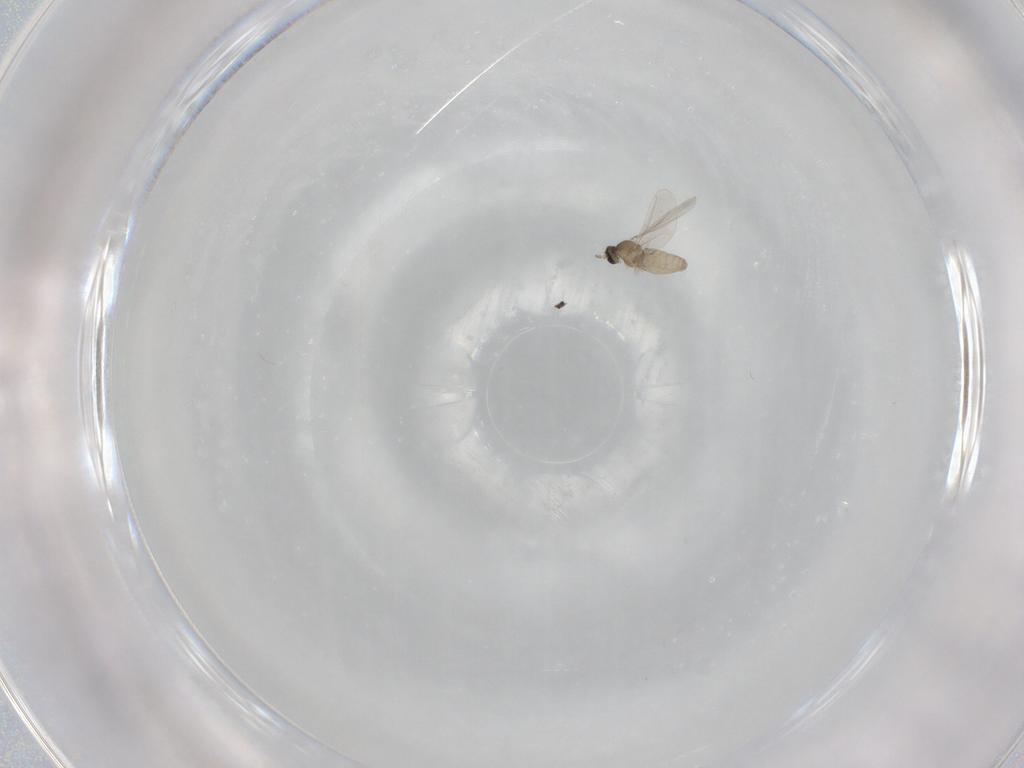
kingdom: Animalia
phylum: Arthropoda
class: Insecta
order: Diptera
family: Cecidomyiidae
